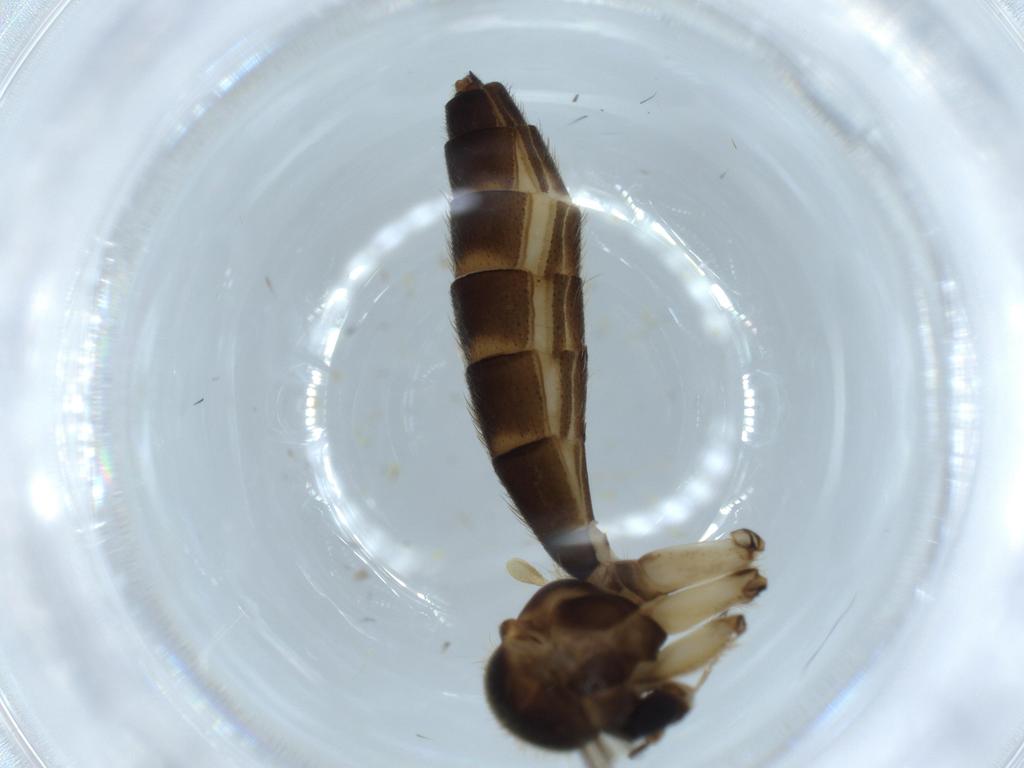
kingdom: Animalia
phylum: Arthropoda
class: Insecta
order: Diptera
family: Mycetophilidae
